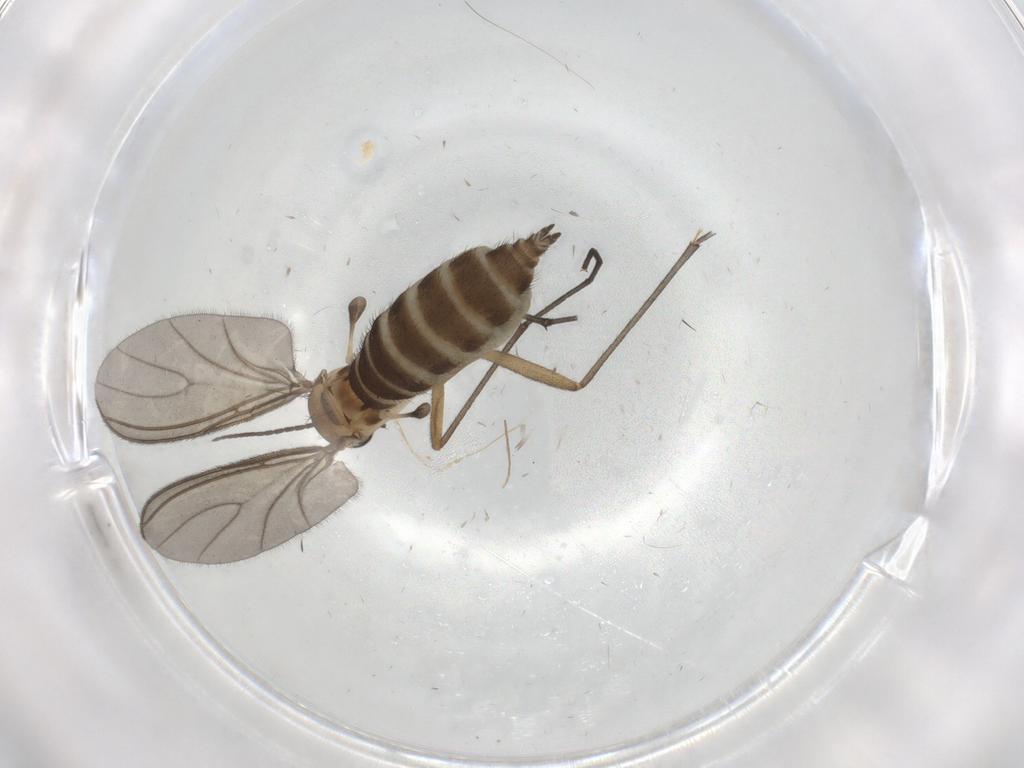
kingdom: Animalia
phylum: Arthropoda
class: Insecta
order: Diptera
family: Sciaridae
